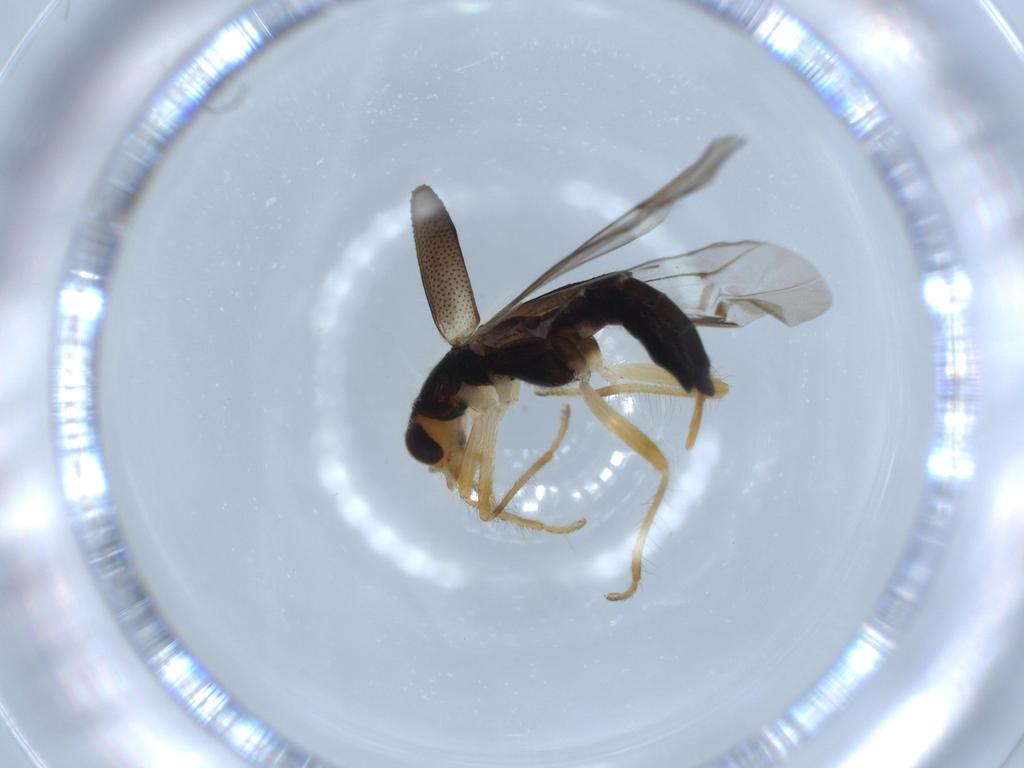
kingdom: Animalia
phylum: Arthropoda
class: Insecta
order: Coleoptera
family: Cleridae
